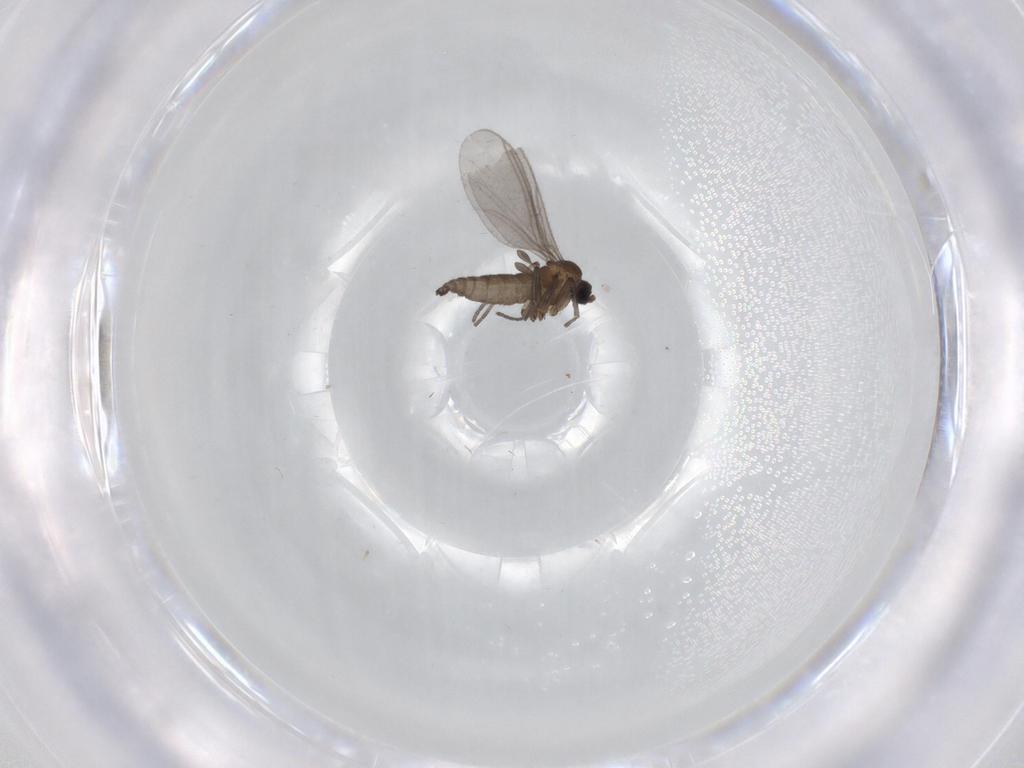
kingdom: Animalia
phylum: Arthropoda
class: Insecta
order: Diptera
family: Sciaridae
